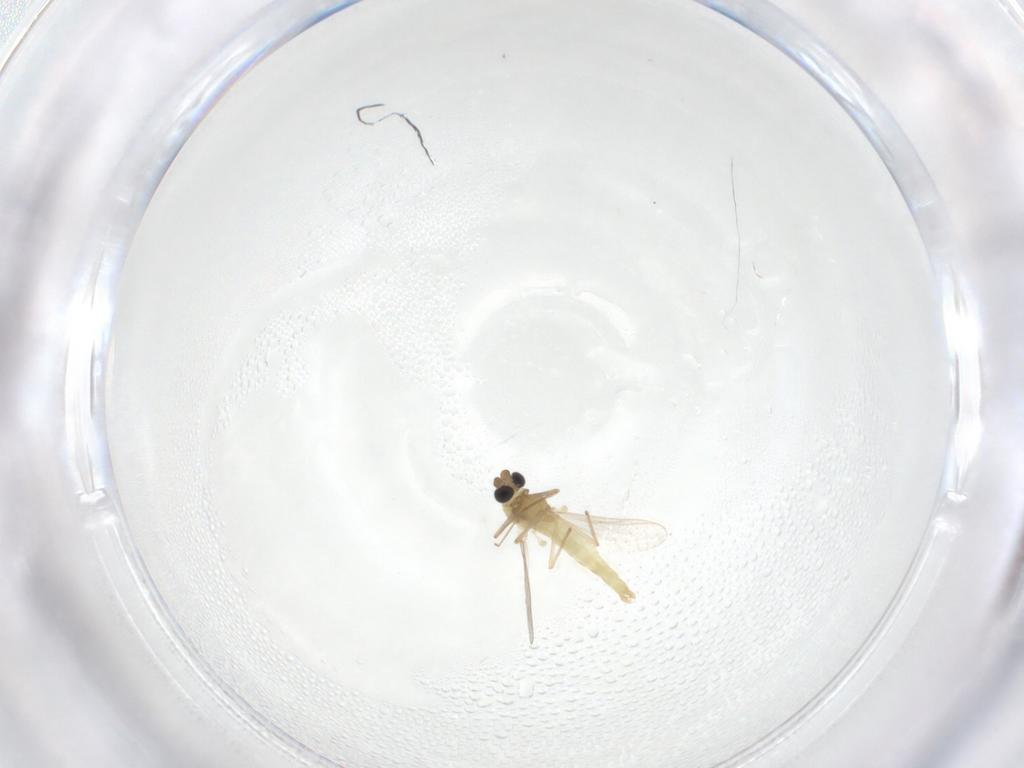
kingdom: Animalia
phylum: Arthropoda
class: Insecta
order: Diptera
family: Chironomidae
